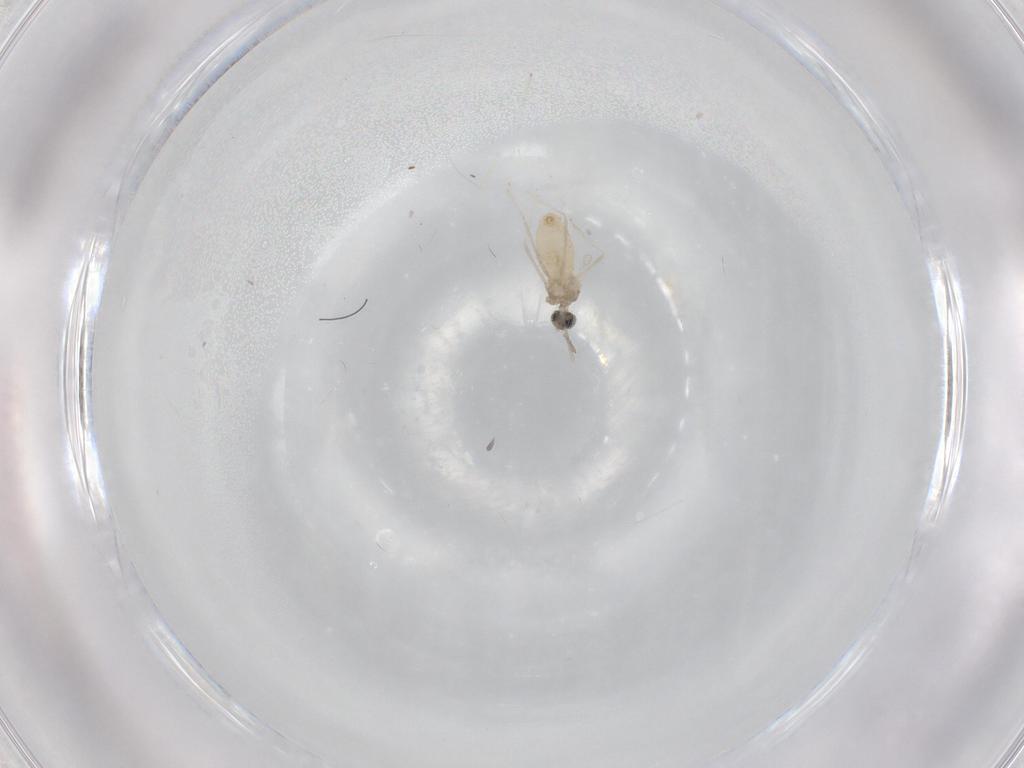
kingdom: Animalia
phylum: Arthropoda
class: Insecta
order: Diptera
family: Cecidomyiidae
